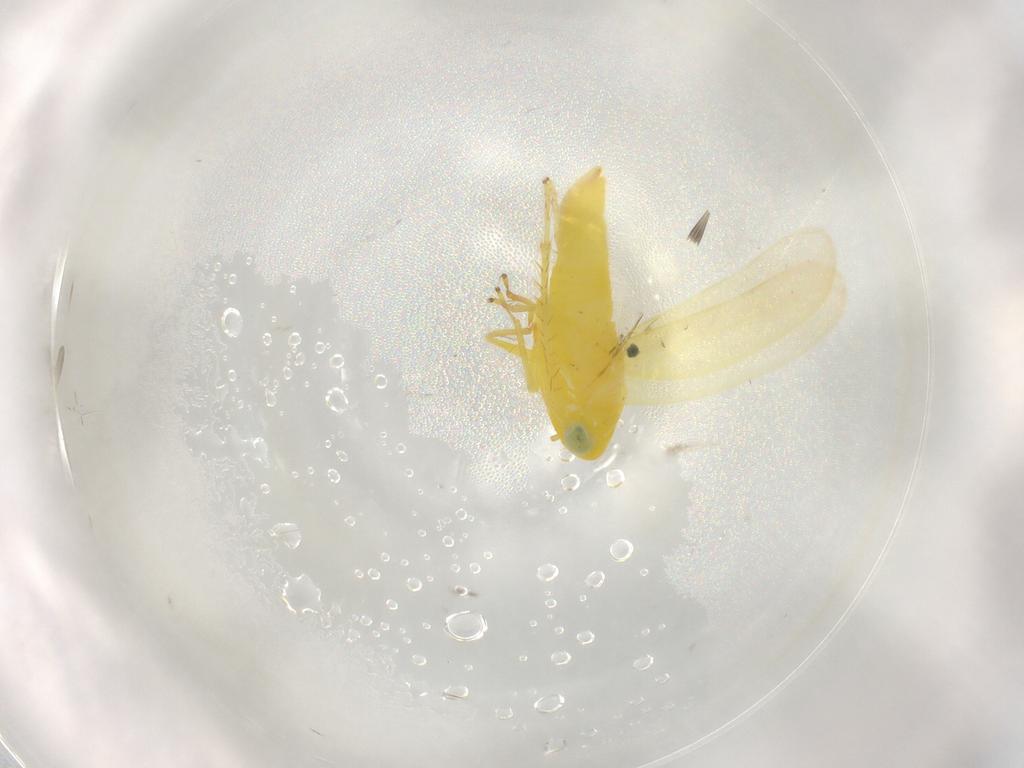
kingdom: Animalia
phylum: Arthropoda
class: Insecta
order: Hemiptera
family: Cicadellidae
